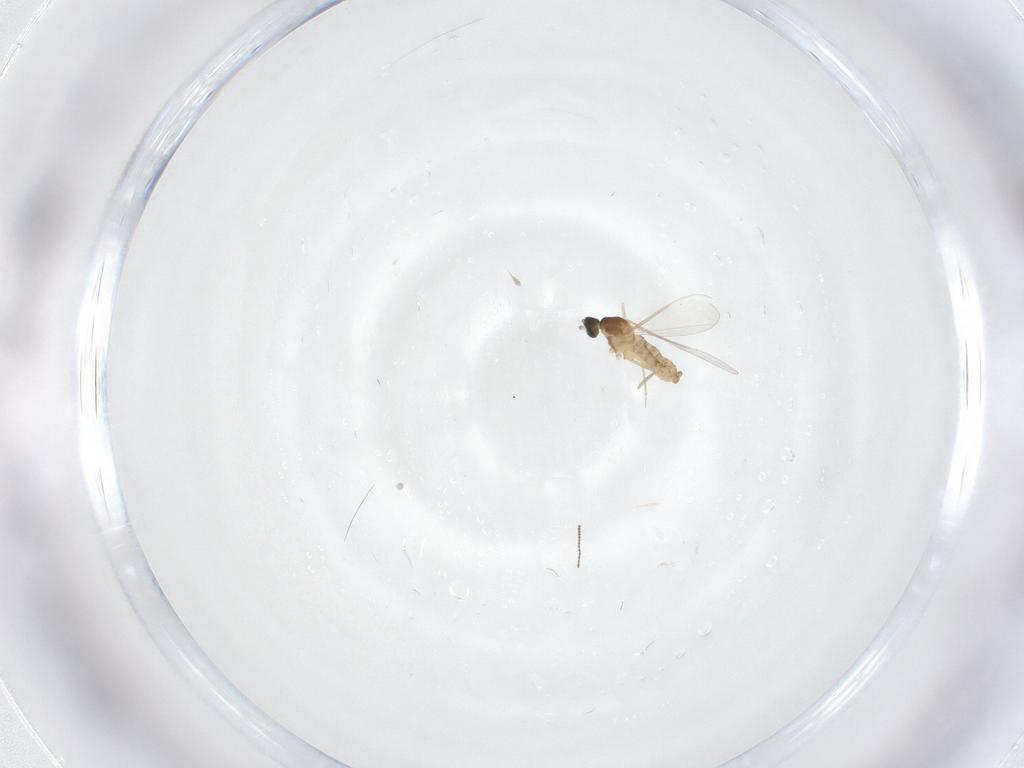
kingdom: Animalia
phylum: Arthropoda
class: Insecta
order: Diptera
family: Cecidomyiidae
